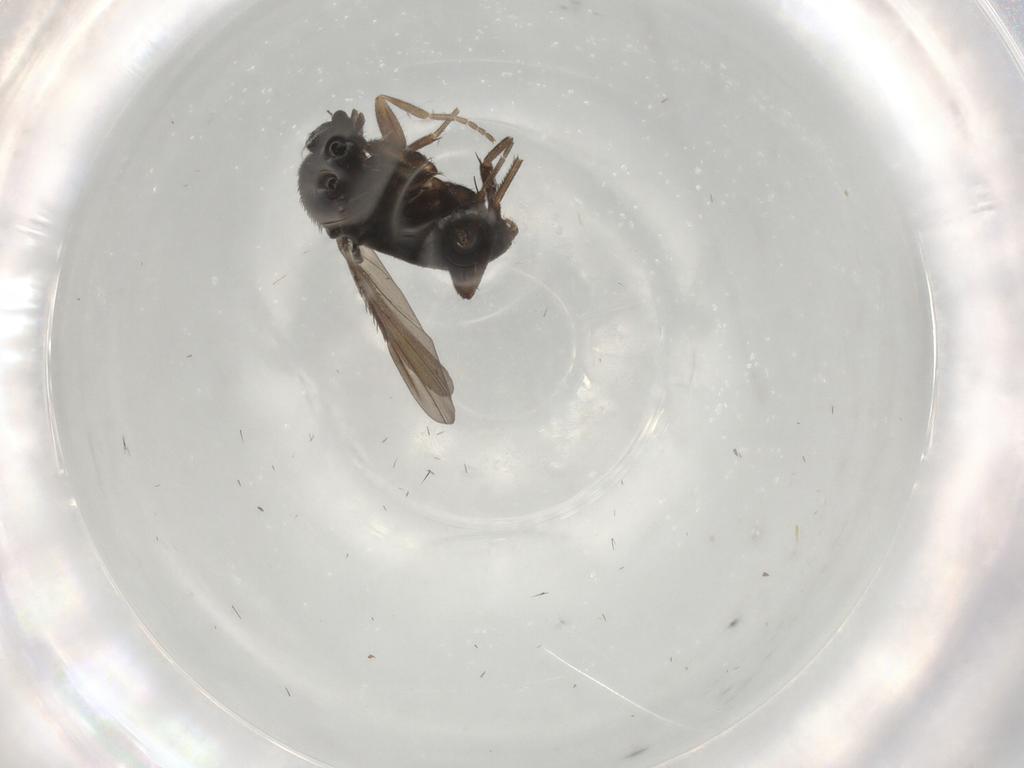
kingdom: Animalia
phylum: Arthropoda
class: Insecta
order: Diptera
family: Phoridae
